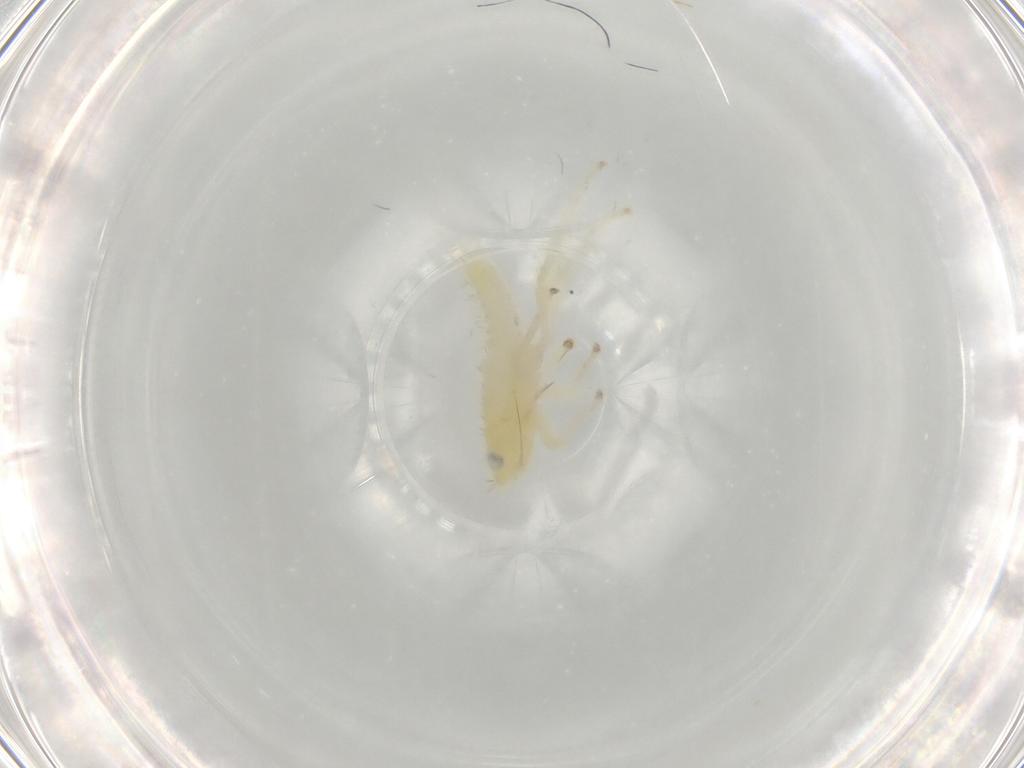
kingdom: Animalia
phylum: Arthropoda
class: Insecta
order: Hemiptera
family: Cicadellidae
